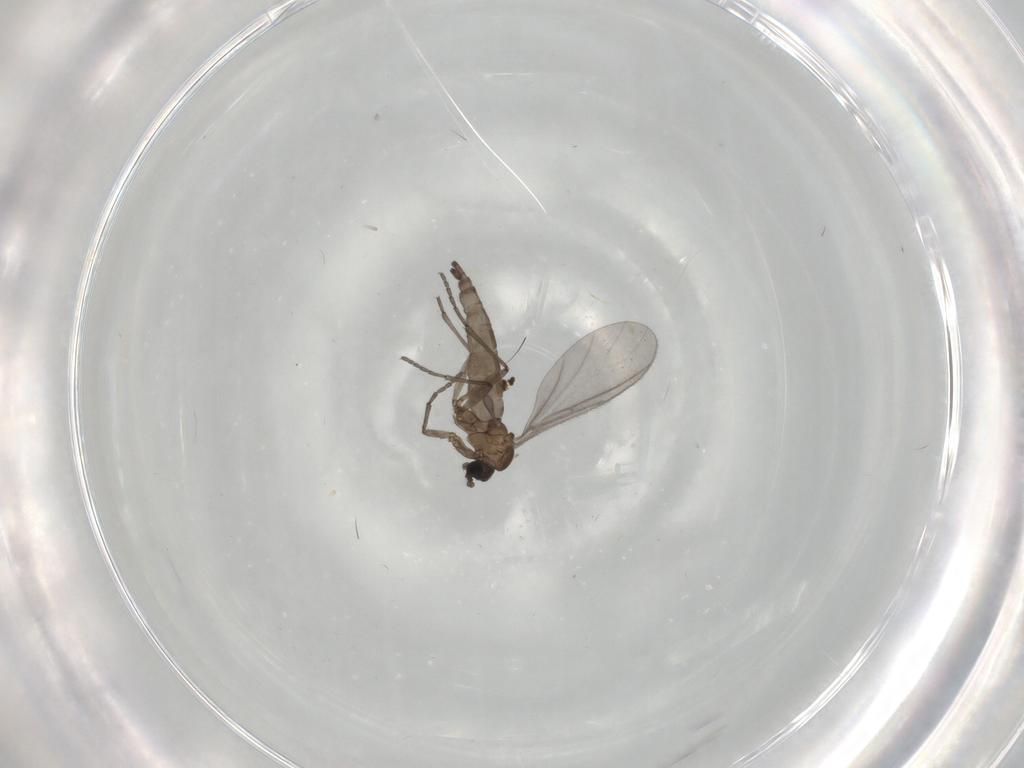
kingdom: Animalia
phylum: Arthropoda
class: Insecta
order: Diptera
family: Sciaridae
